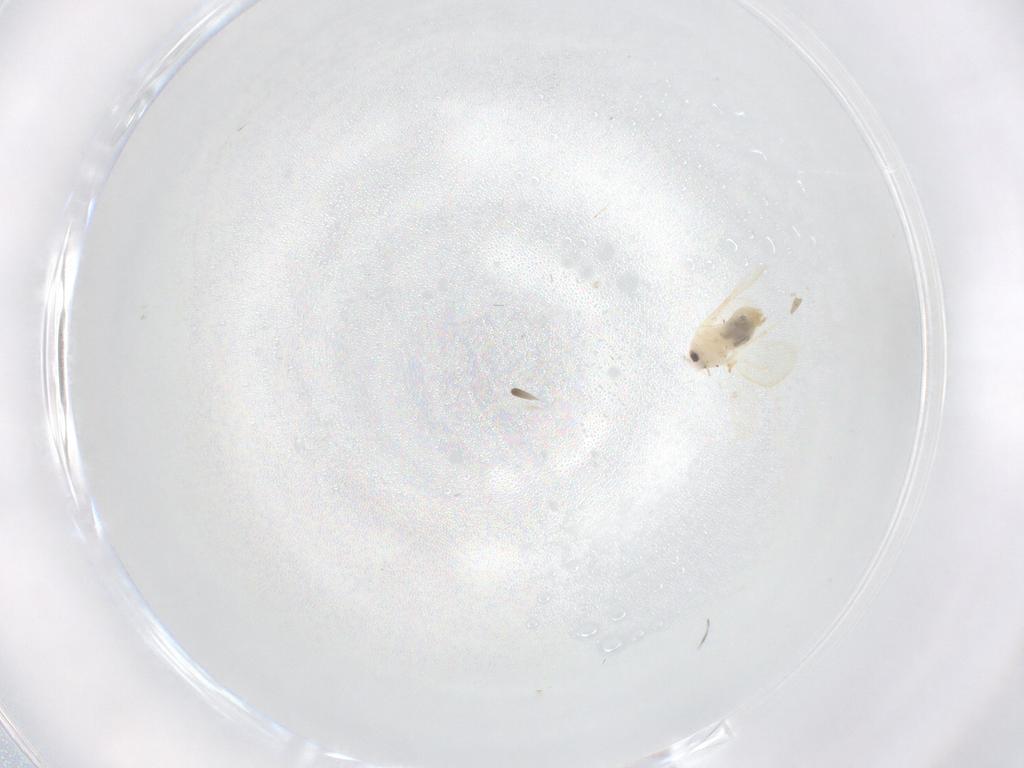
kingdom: Animalia
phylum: Arthropoda
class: Insecta
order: Hemiptera
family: Aleyrodidae
